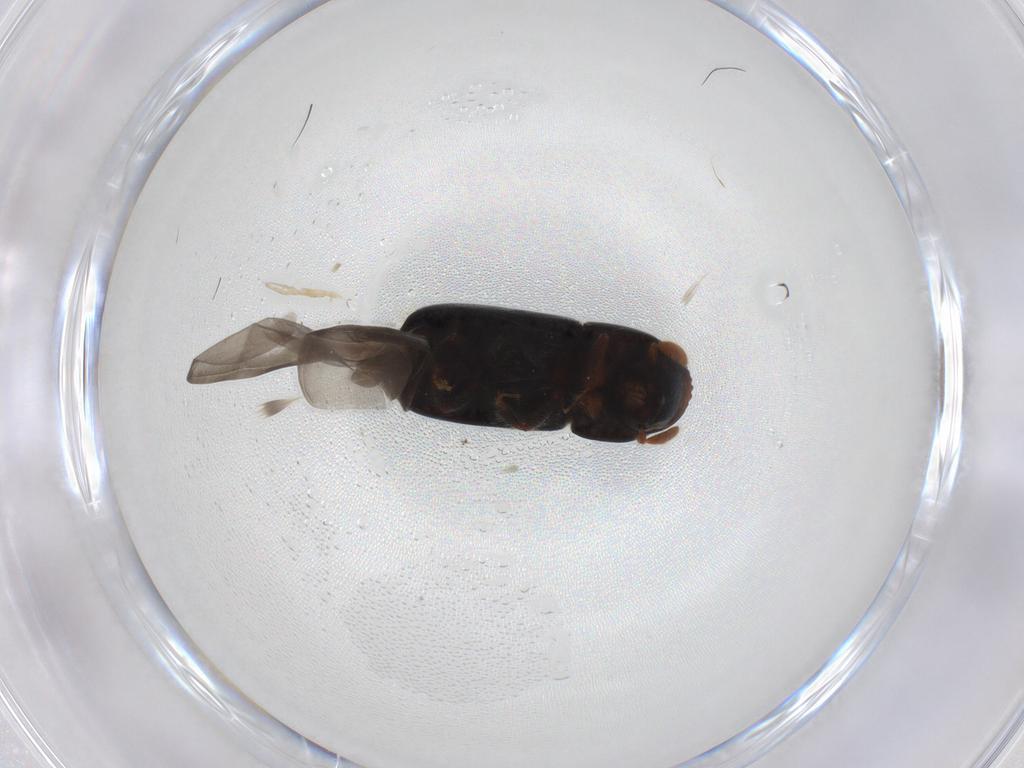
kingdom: Animalia
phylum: Arthropoda
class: Insecta
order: Coleoptera
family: Curculionidae
